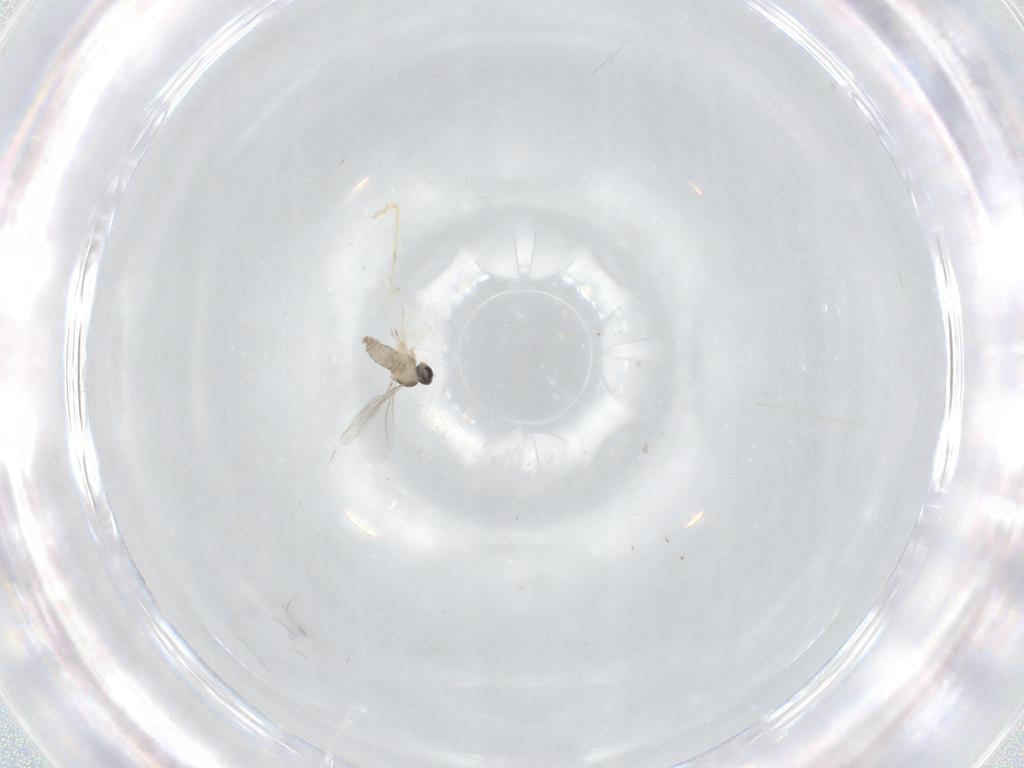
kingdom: Animalia
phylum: Arthropoda
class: Insecta
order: Diptera
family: Cecidomyiidae
